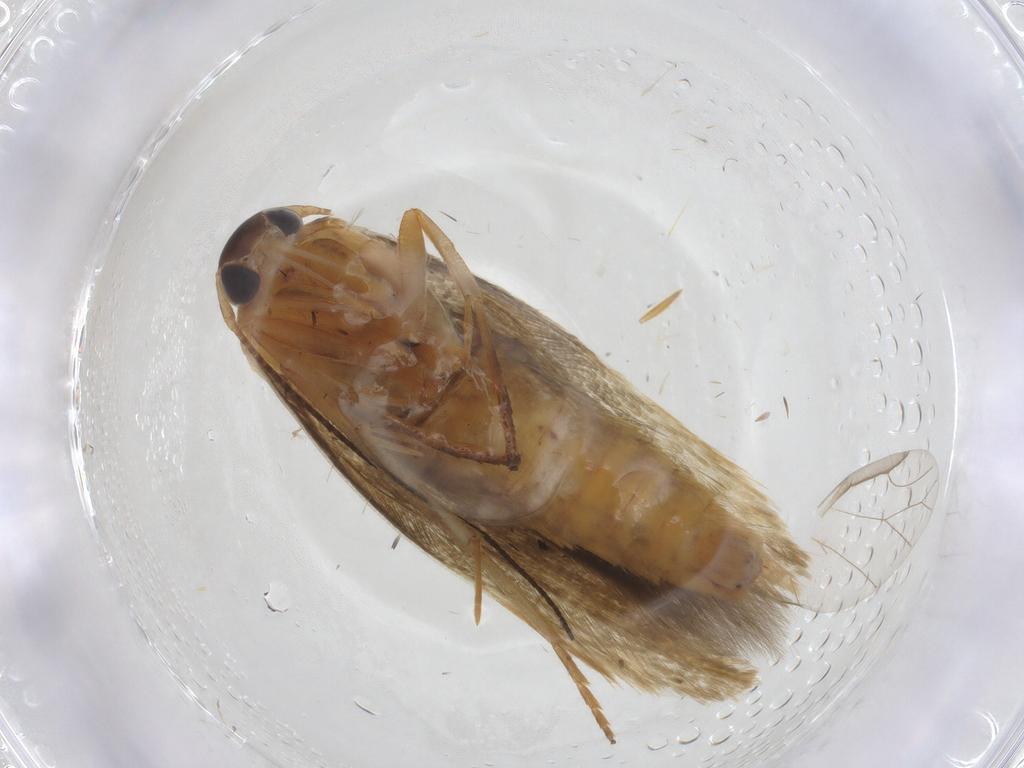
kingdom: Animalia
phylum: Arthropoda
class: Insecta
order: Lepidoptera
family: Stathmopodidae
